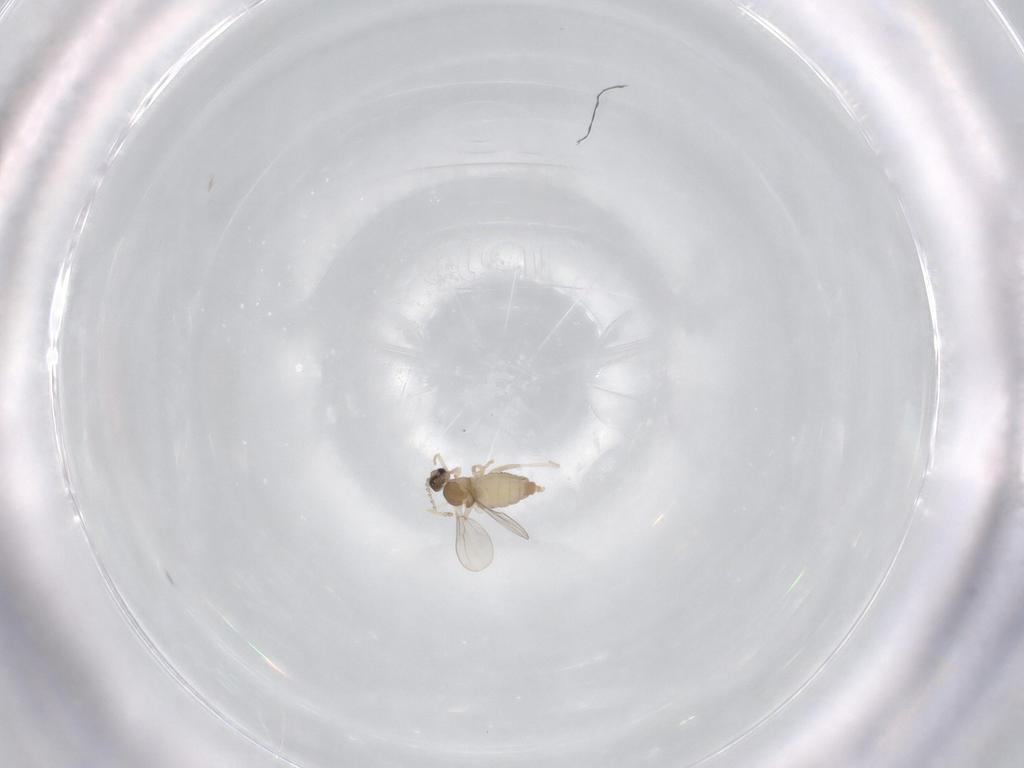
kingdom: Animalia
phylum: Arthropoda
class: Insecta
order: Diptera
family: Cecidomyiidae
